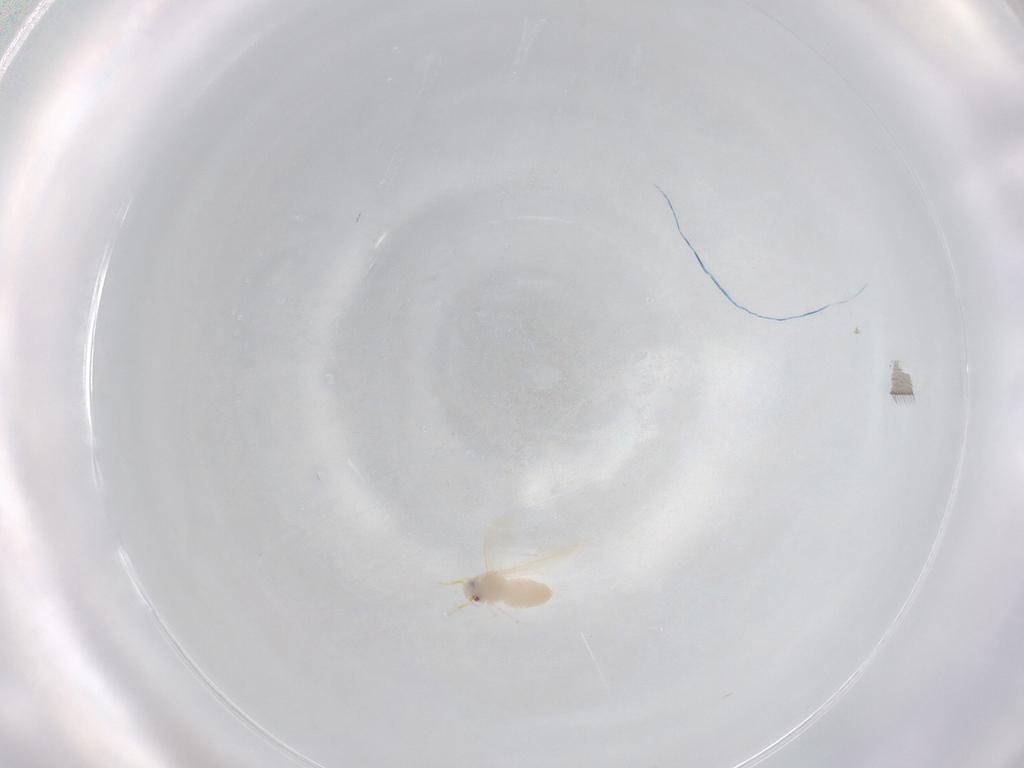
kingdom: Animalia
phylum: Arthropoda
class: Insecta
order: Hemiptera
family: Aleyrodidae
